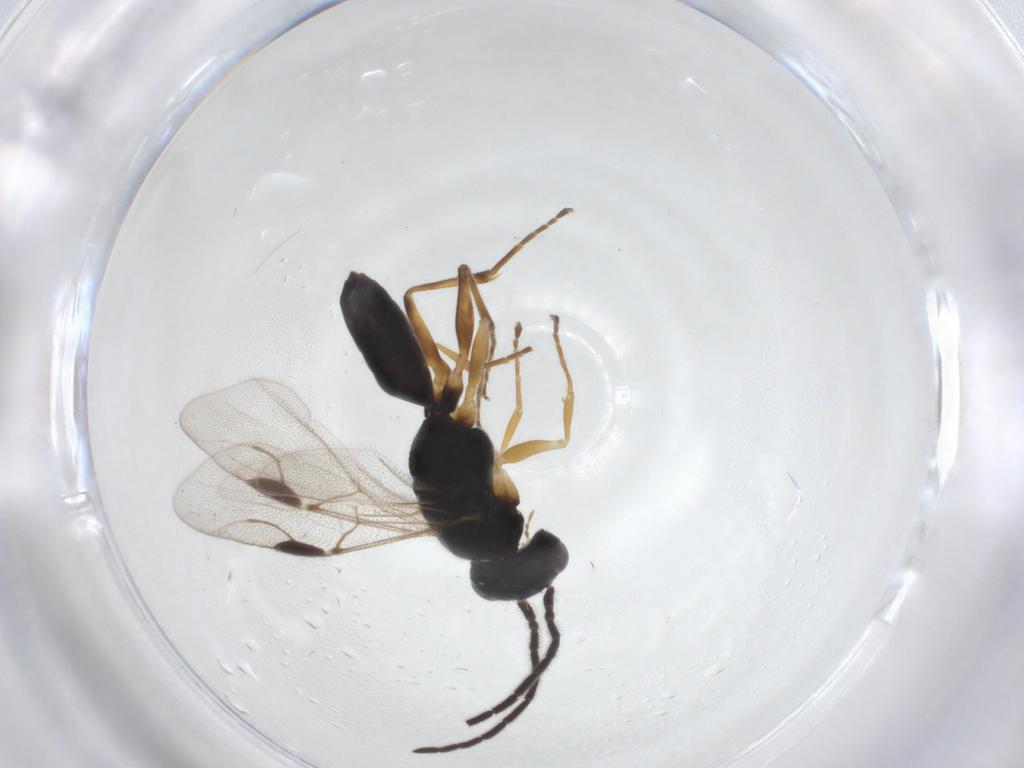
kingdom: Animalia
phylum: Arthropoda
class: Insecta
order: Hymenoptera
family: Dryinidae
